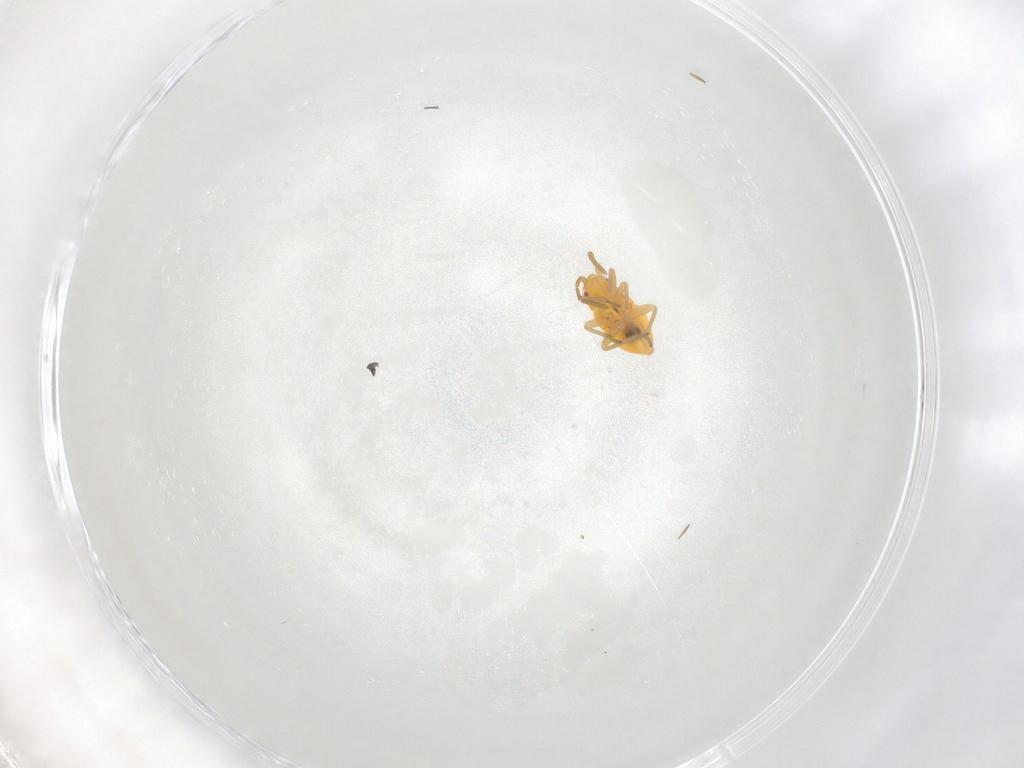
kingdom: Animalia
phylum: Arthropoda
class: Insecta
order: Hemiptera
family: Miridae
